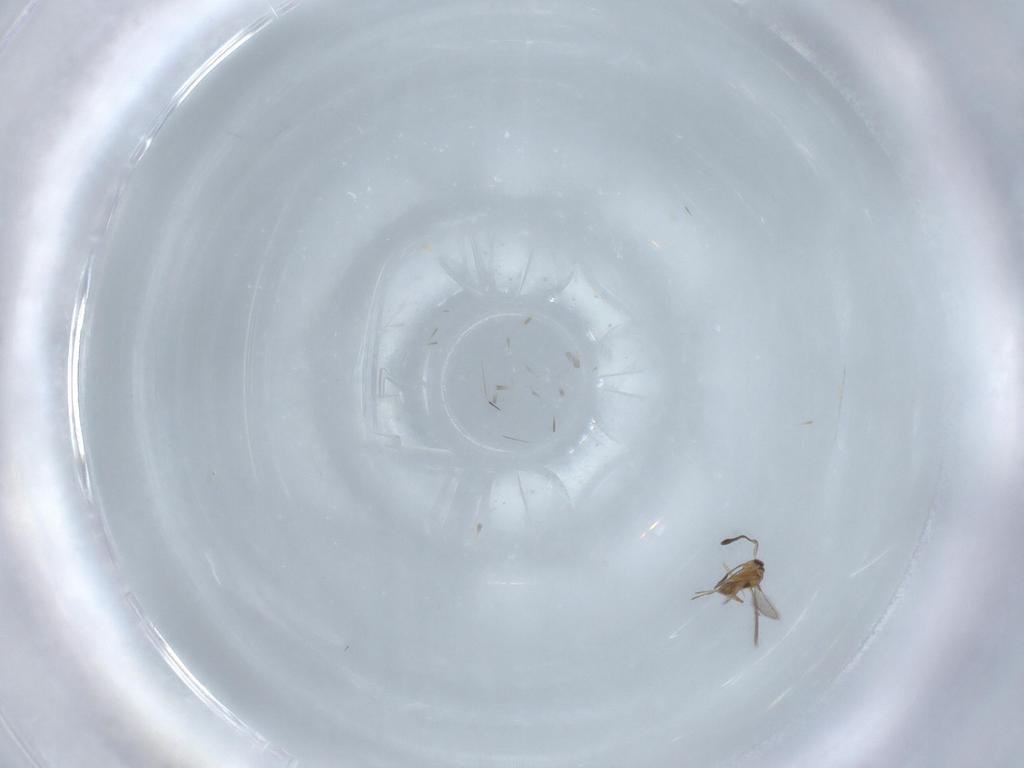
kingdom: Animalia
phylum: Arthropoda
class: Insecta
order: Hymenoptera
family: Mymaridae
